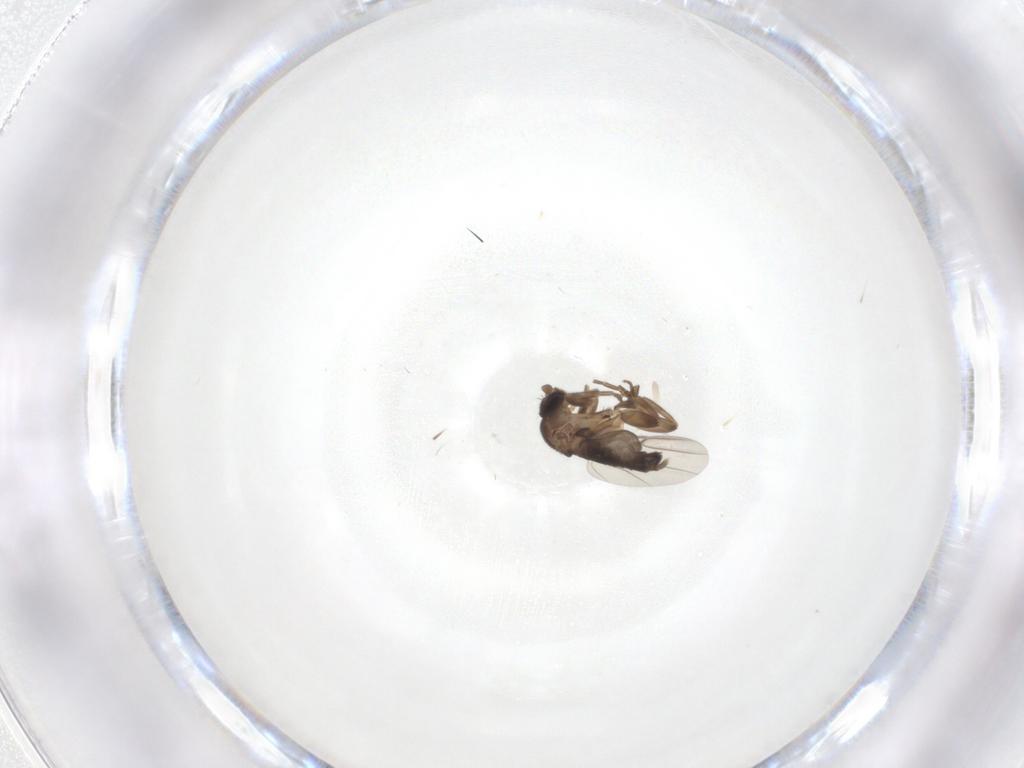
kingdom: Animalia
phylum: Arthropoda
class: Insecta
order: Diptera
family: Phoridae
